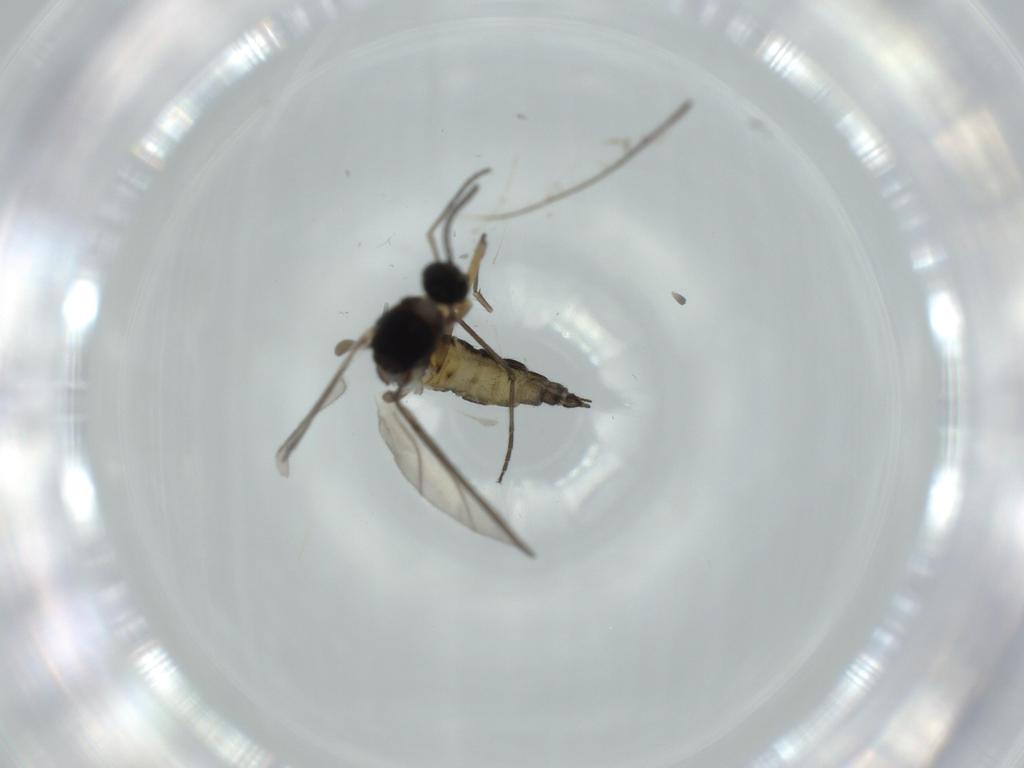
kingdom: Animalia
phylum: Arthropoda
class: Insecta
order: Diptera
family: Sciaridae
